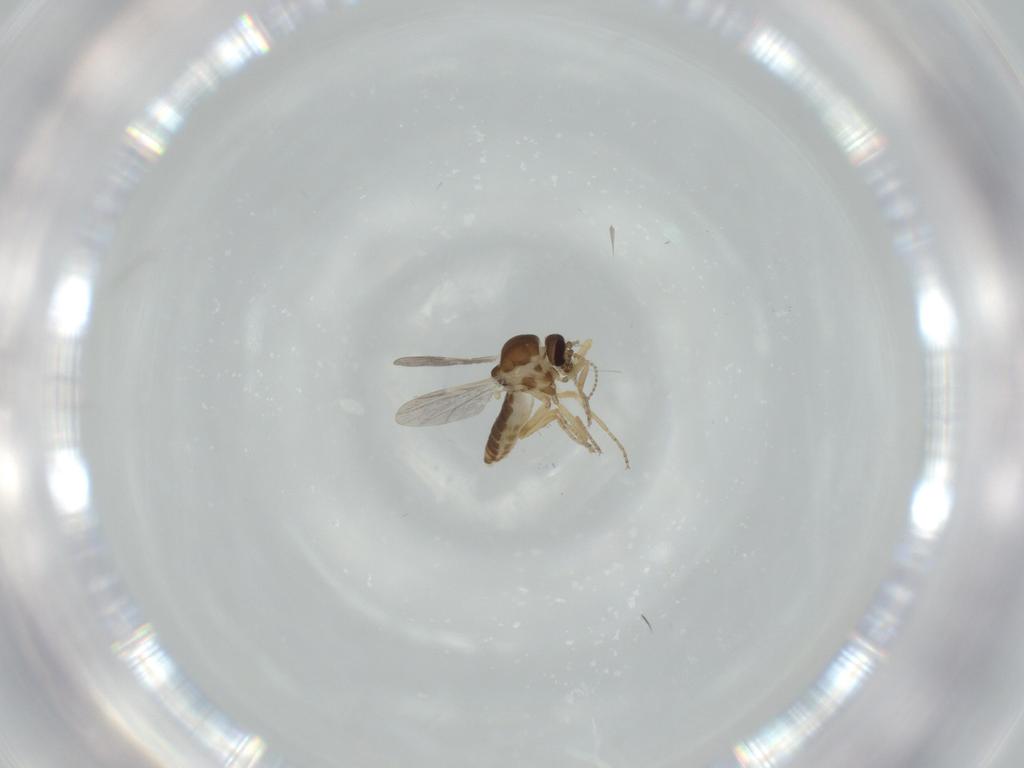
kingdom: Animalia
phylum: Arthropoda
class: Insecta
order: Diptera
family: Ceratopogonidae
